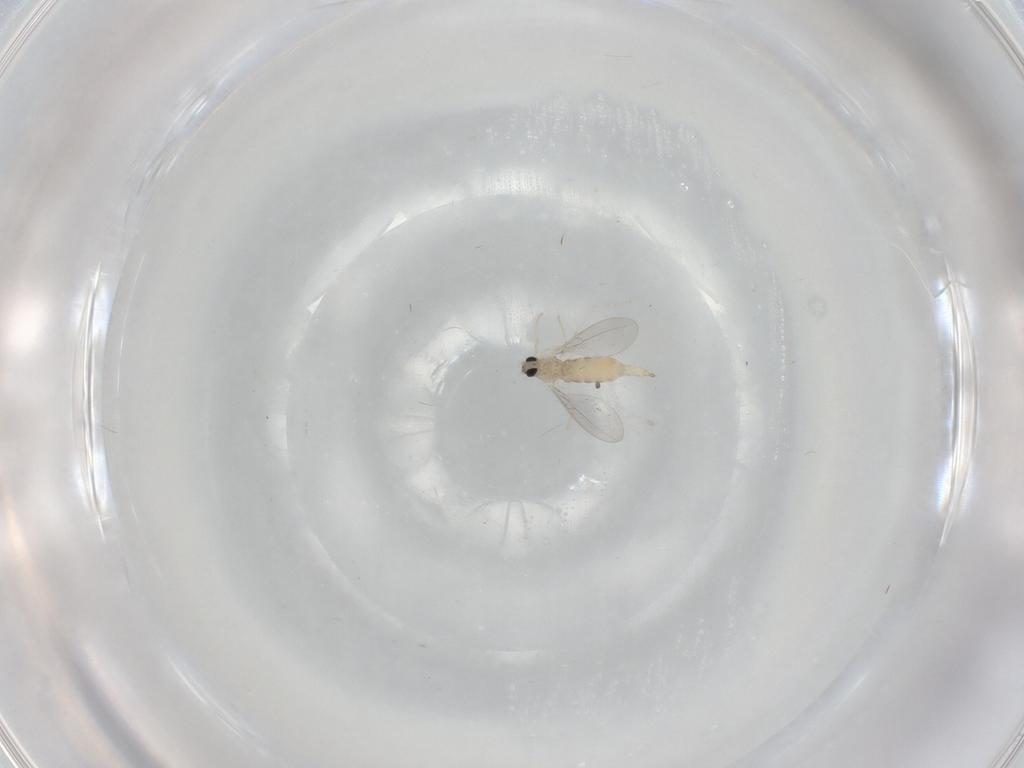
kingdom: Animalia
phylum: Arthropoda
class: Insecta
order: Diptera
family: Cecidomyiidae
